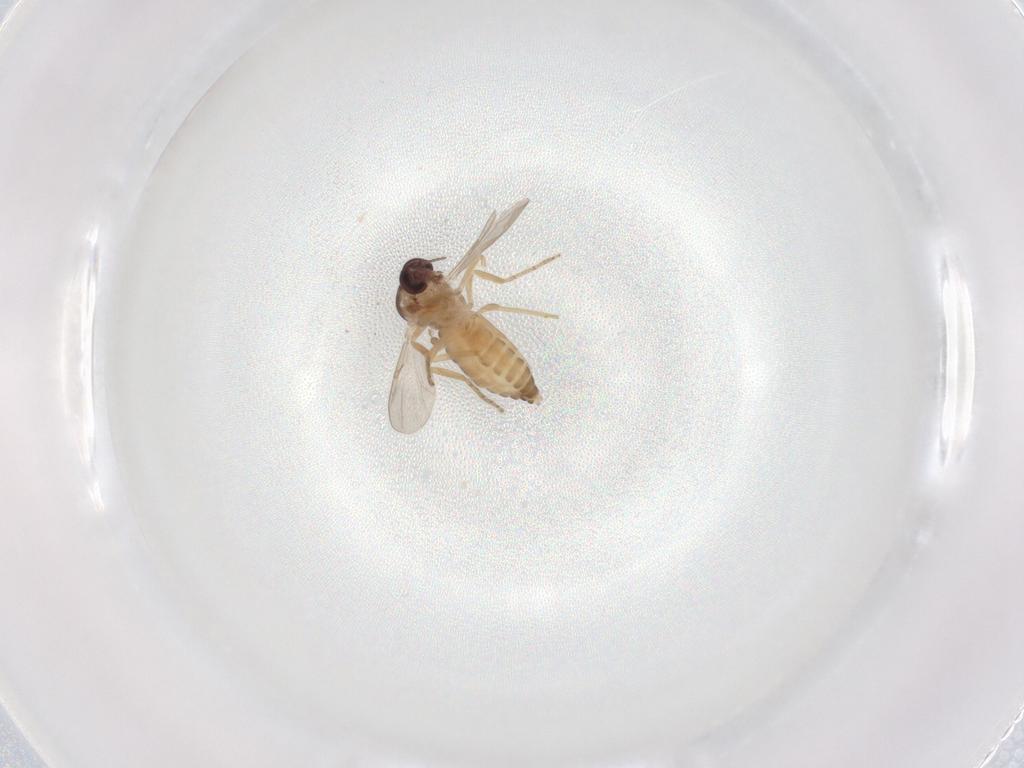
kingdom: Animalia
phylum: Arthropoda
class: Insecta
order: Diptera
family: Ceratopogonidae
